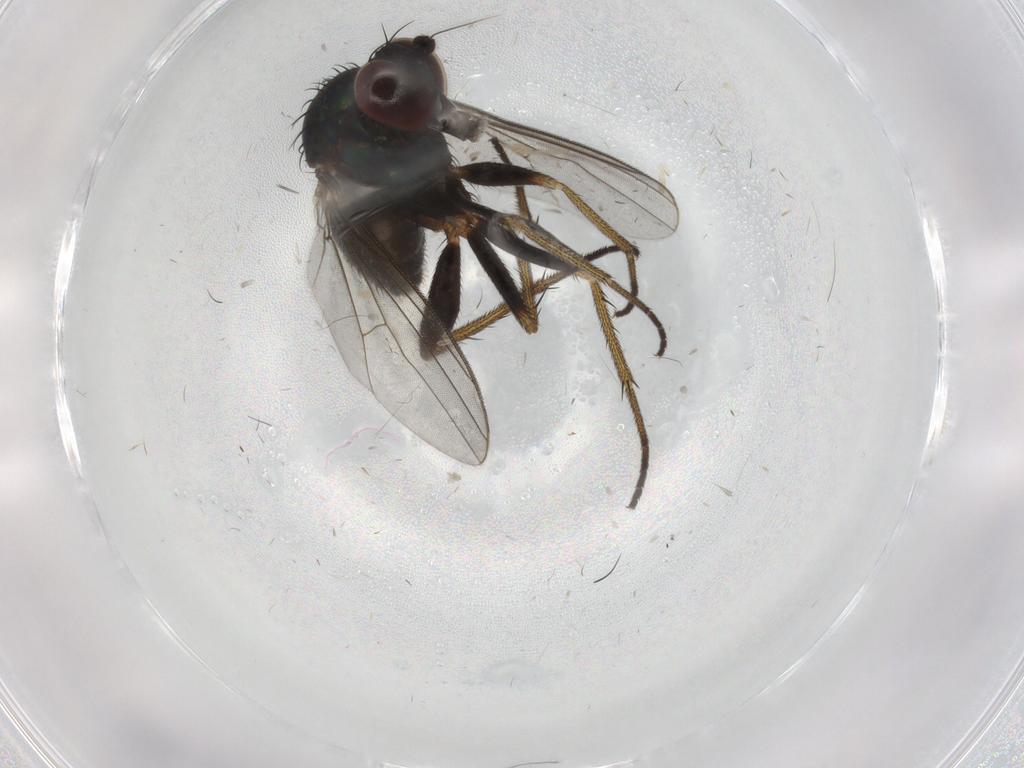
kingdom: Animalia
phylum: Arthropoda
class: Insecta
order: Diptera
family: Dolichopodidae
